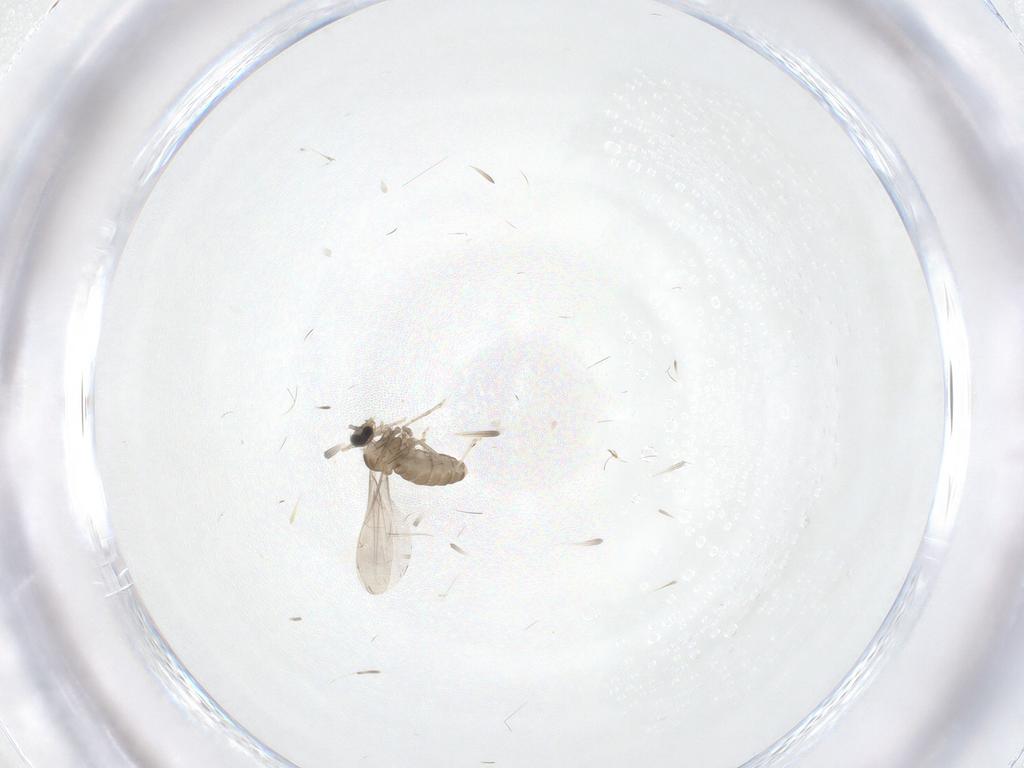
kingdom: Animalia
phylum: Arthropoda
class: Insecta
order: Diptera
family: Cecidomyiidae
